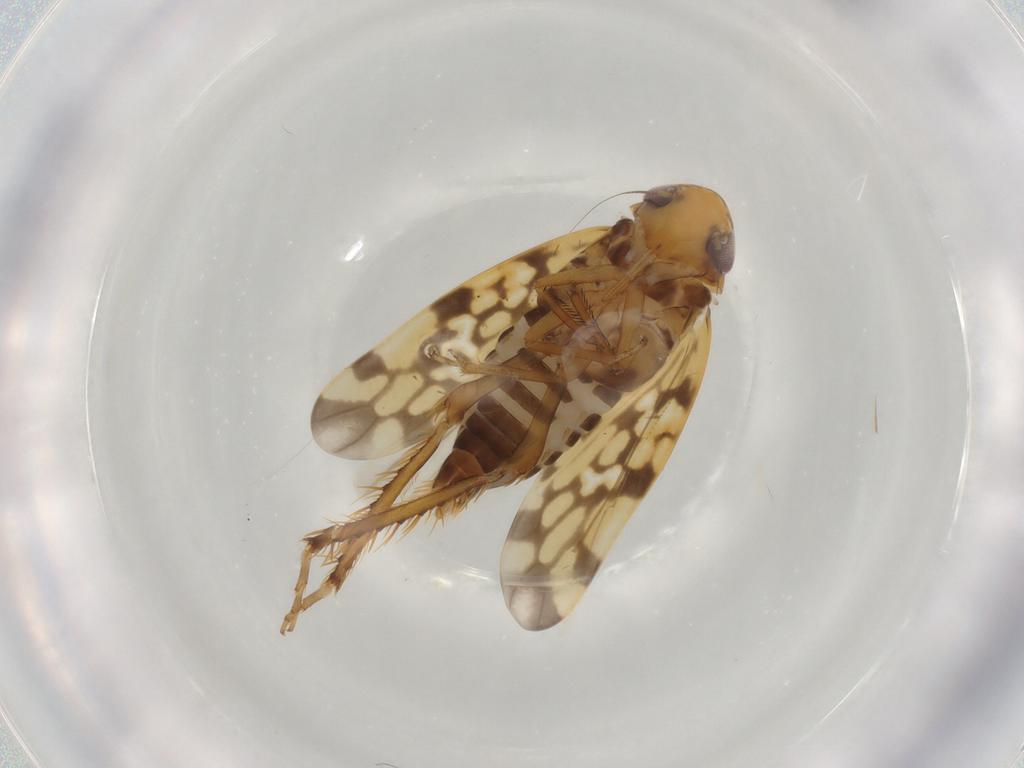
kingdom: Animalia
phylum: Arthropoda
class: Insecta
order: Hemiptera
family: Cicadellidae
